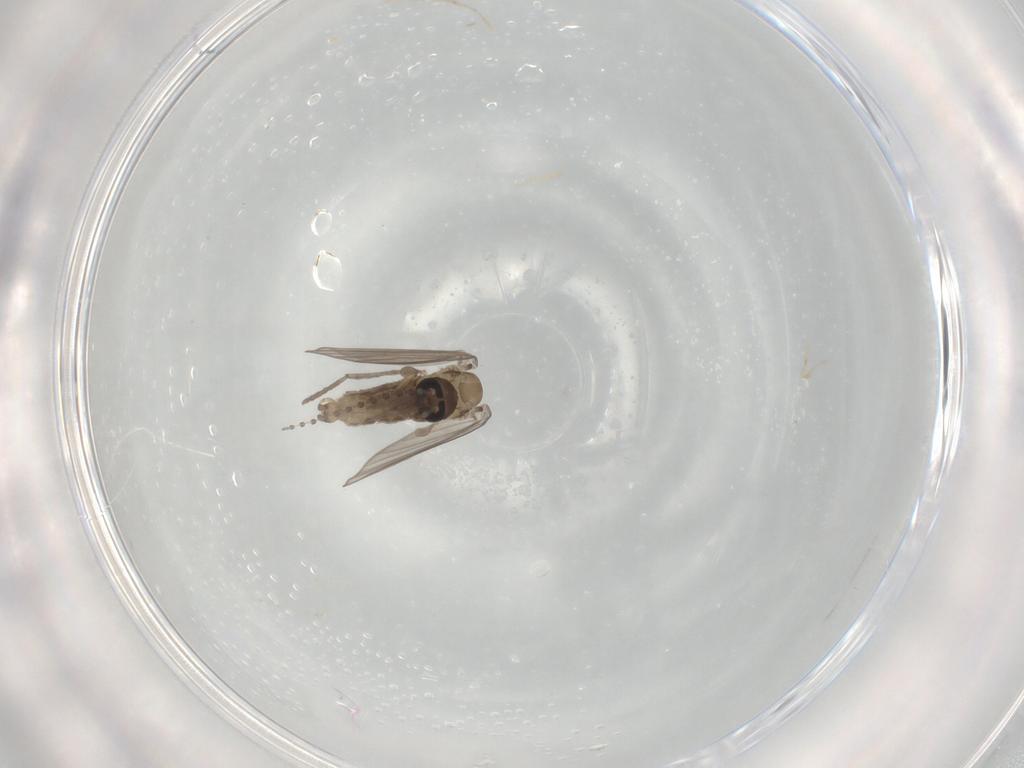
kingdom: Animalia
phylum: Arthropoda
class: Insecta
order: Diptera
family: Psychodidae
